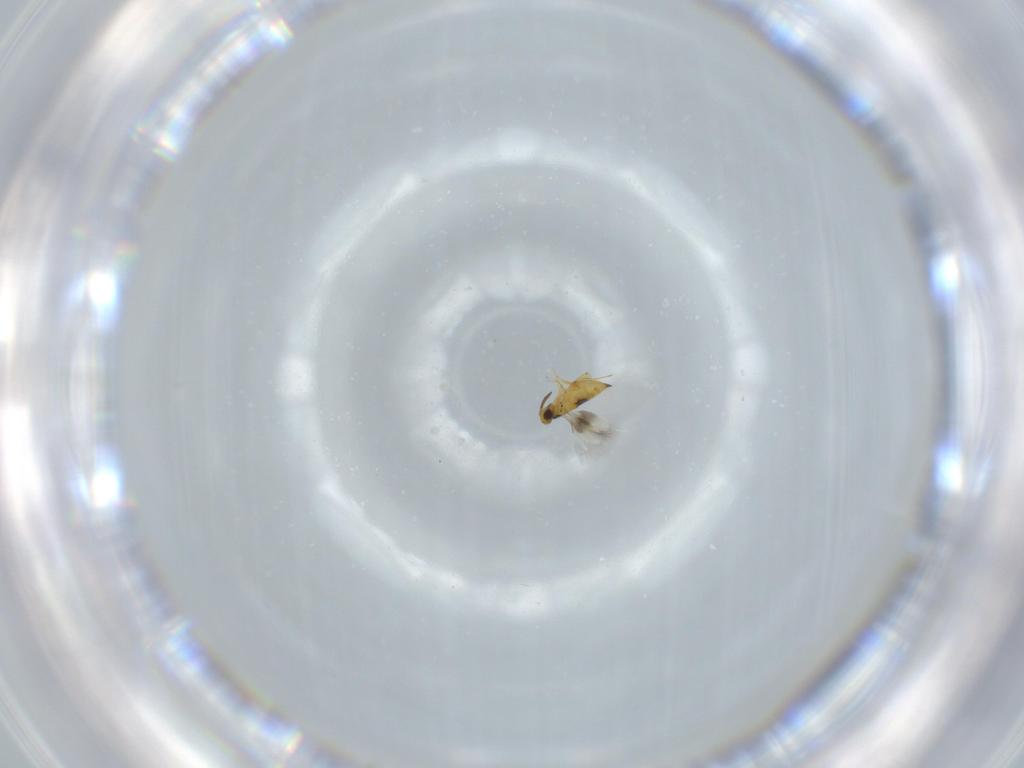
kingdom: Animalia
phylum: Arthropoda
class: Insecta
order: Hymenoptera
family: Signiphoridae
